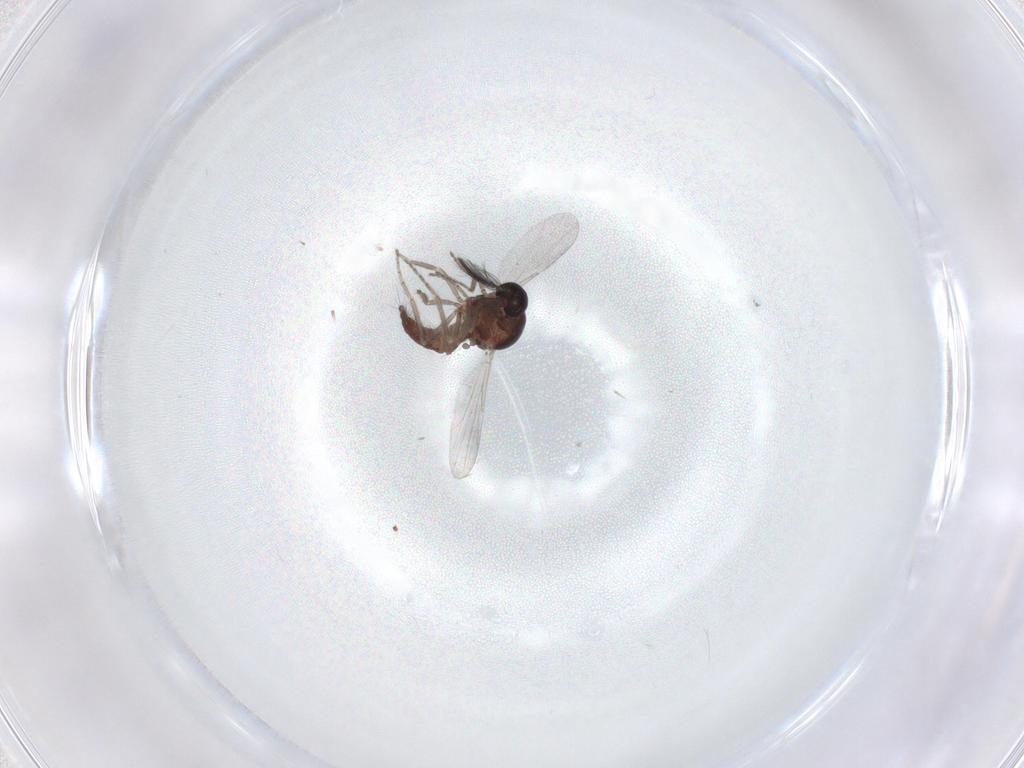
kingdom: Animalia
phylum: Arthropoda
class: Insecta
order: Diptera
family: Ceratopogonidae
